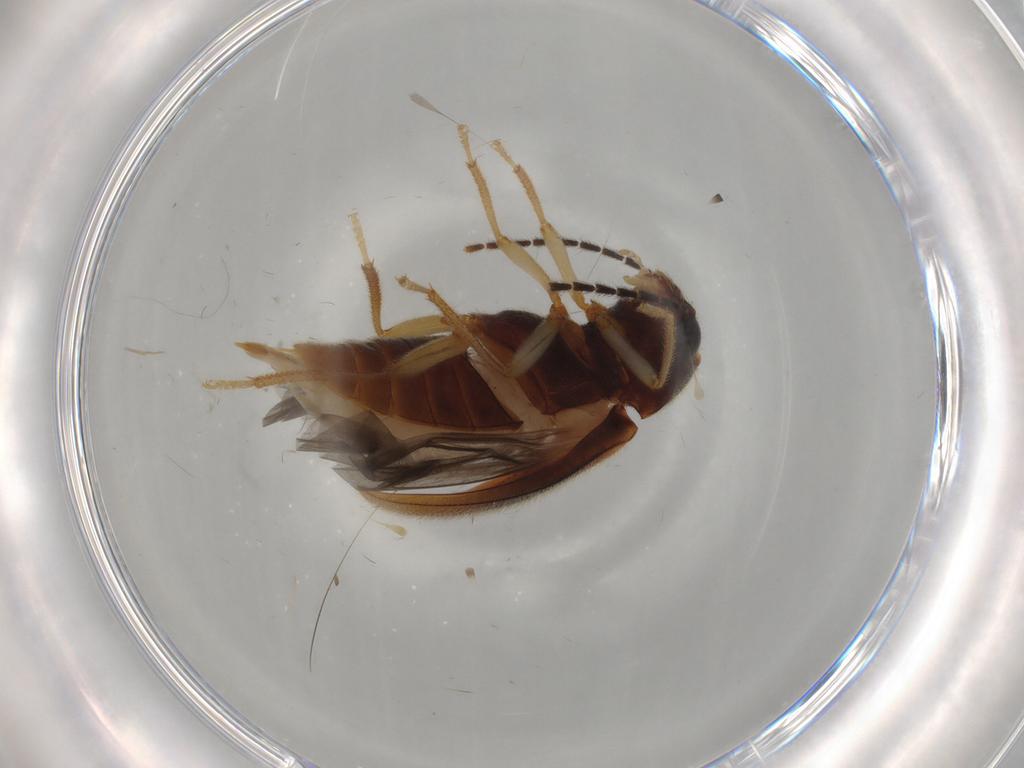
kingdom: Animalia
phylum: Arthropoda
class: Insecta
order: Coleoptera
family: Ptilodactylidae
